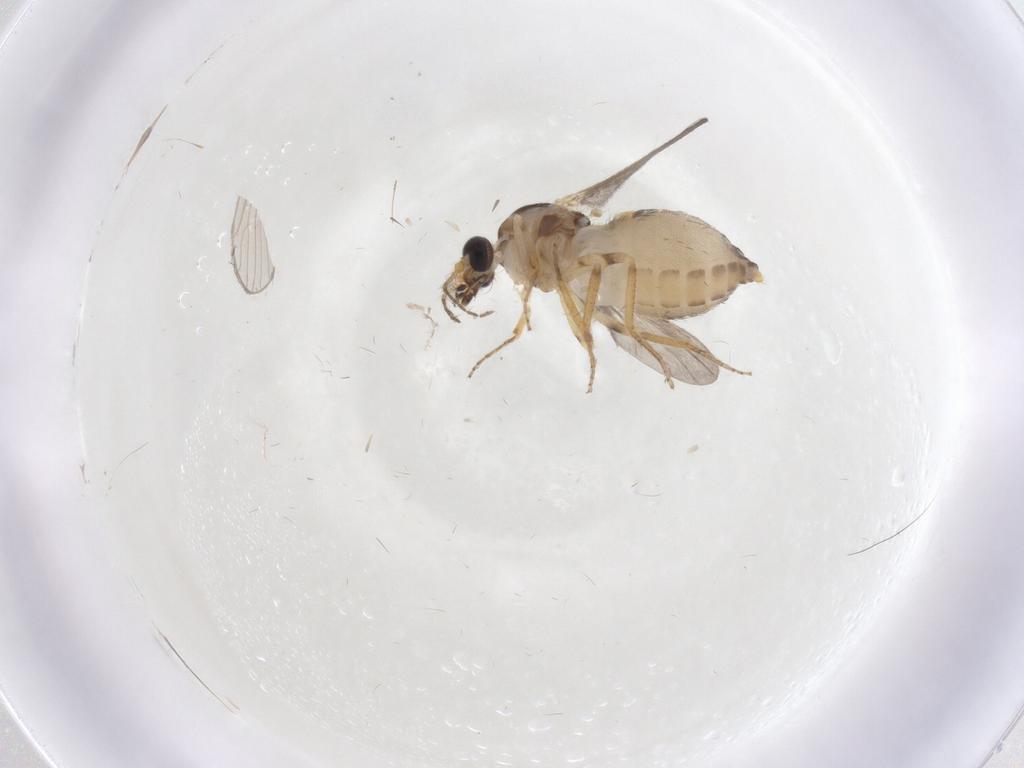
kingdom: Animalia
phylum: Arthropoda
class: Insecta
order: Diptera
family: Ceratopogonidae
